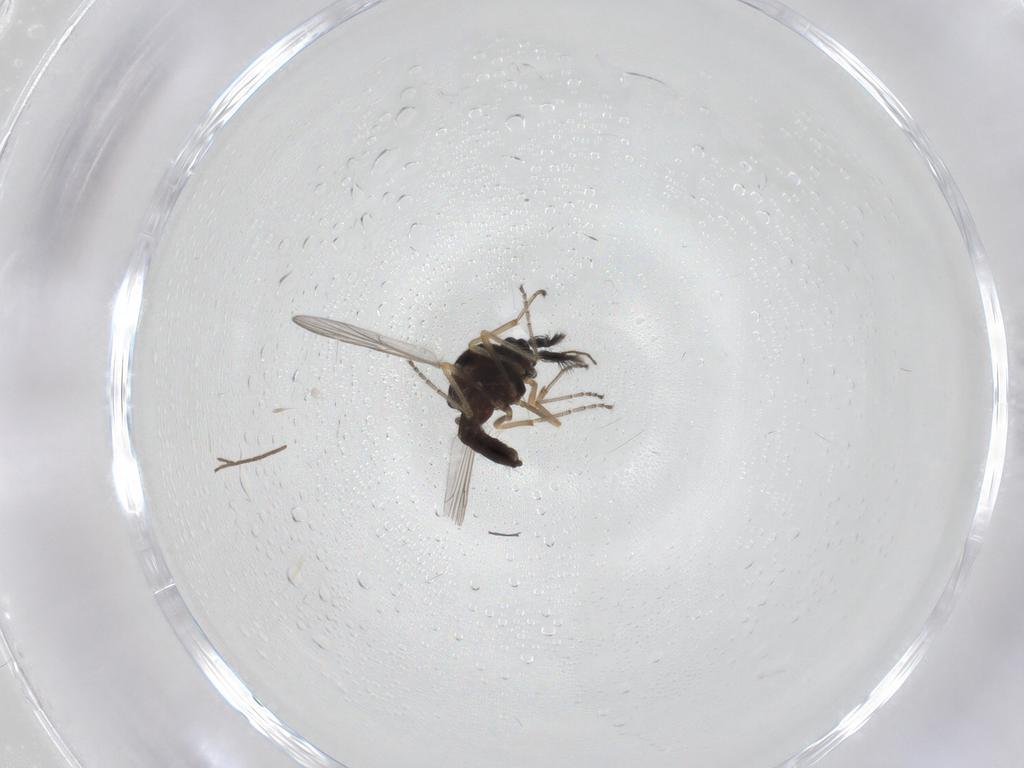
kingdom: Animalia
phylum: Arthropoda
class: Insecta
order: Diptera
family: Ceratopogonidae
